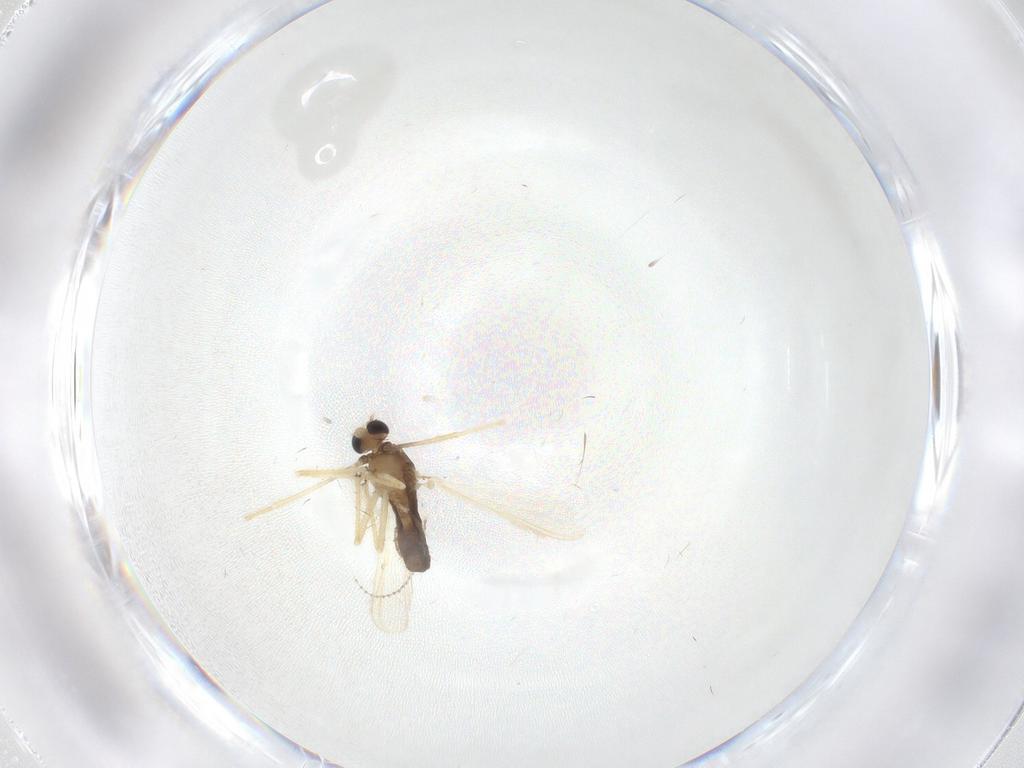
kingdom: Animalia
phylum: Arthropoda
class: Insecta
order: Diptera
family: Chironomidae
